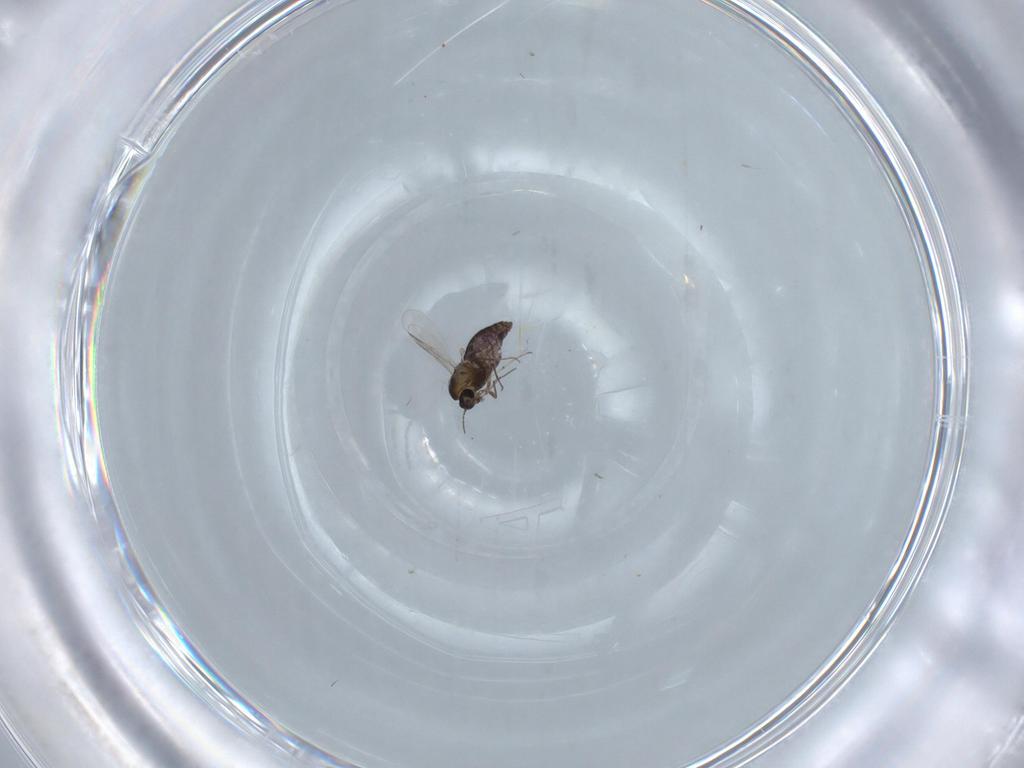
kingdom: Animalia
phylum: Arthropoda
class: Insecta
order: Diptera
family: Chironomidae
